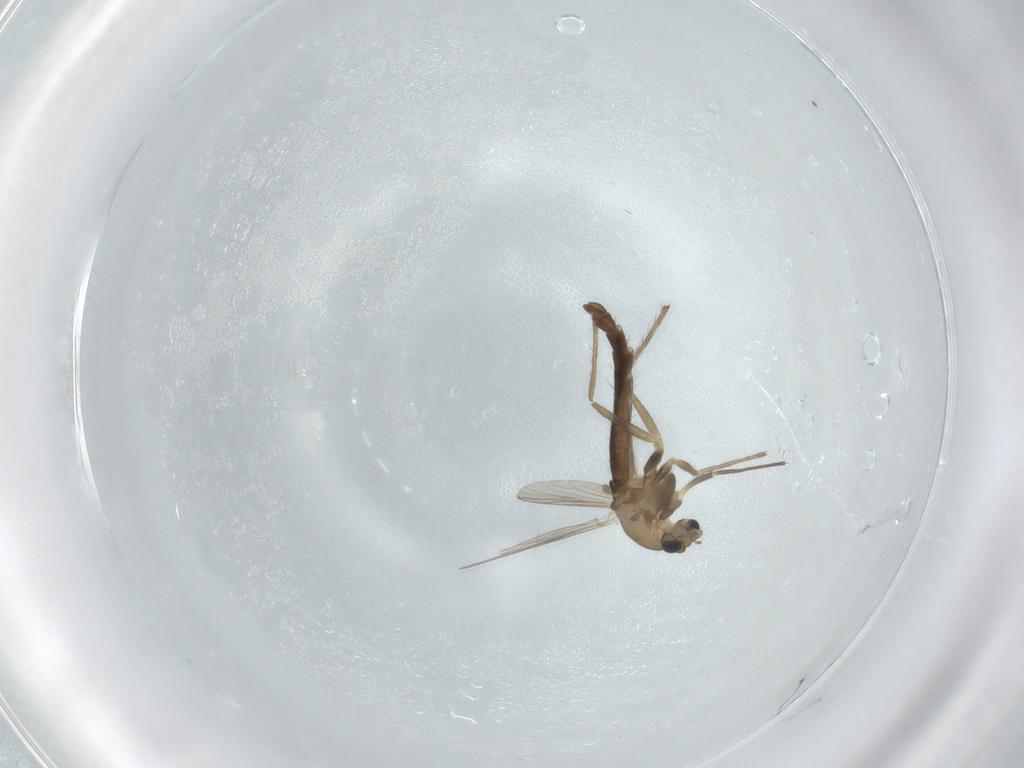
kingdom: Animalia
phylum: Arthropoda
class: Insecta
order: Diptera
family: Chironomidae
